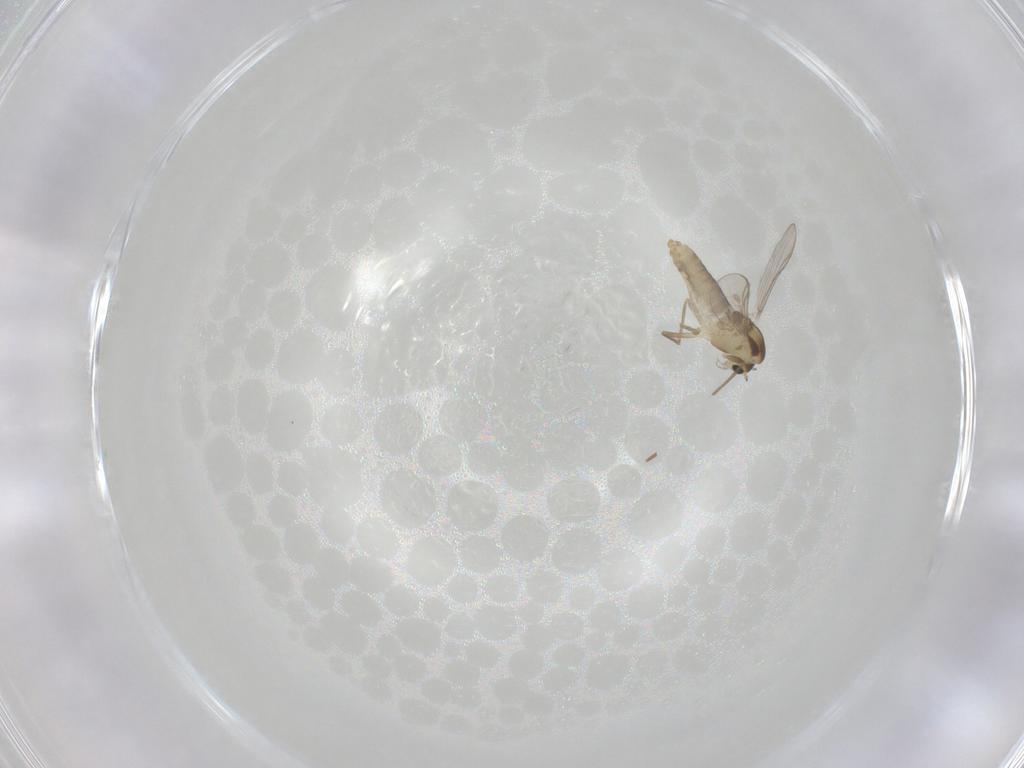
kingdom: Animalia
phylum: Arthropoda
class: Insecta
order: Diptera
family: Chironomidae
